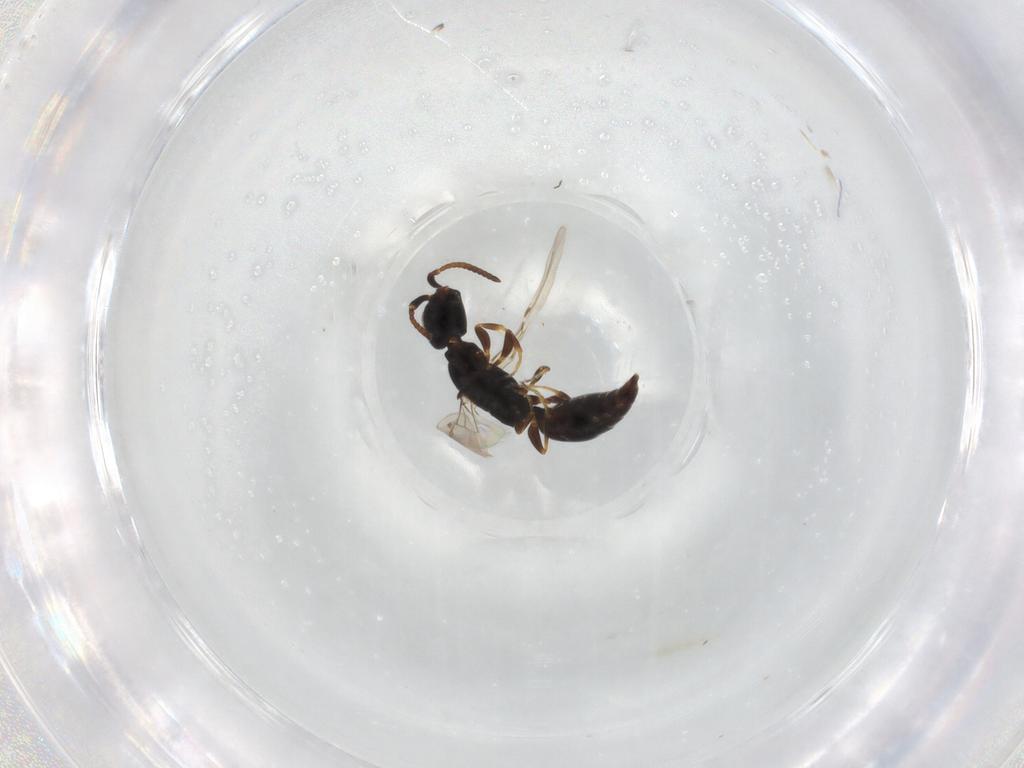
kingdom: Animalia
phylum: Arthropoda
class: Insecta
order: Hymenoptera
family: Bethylidae
